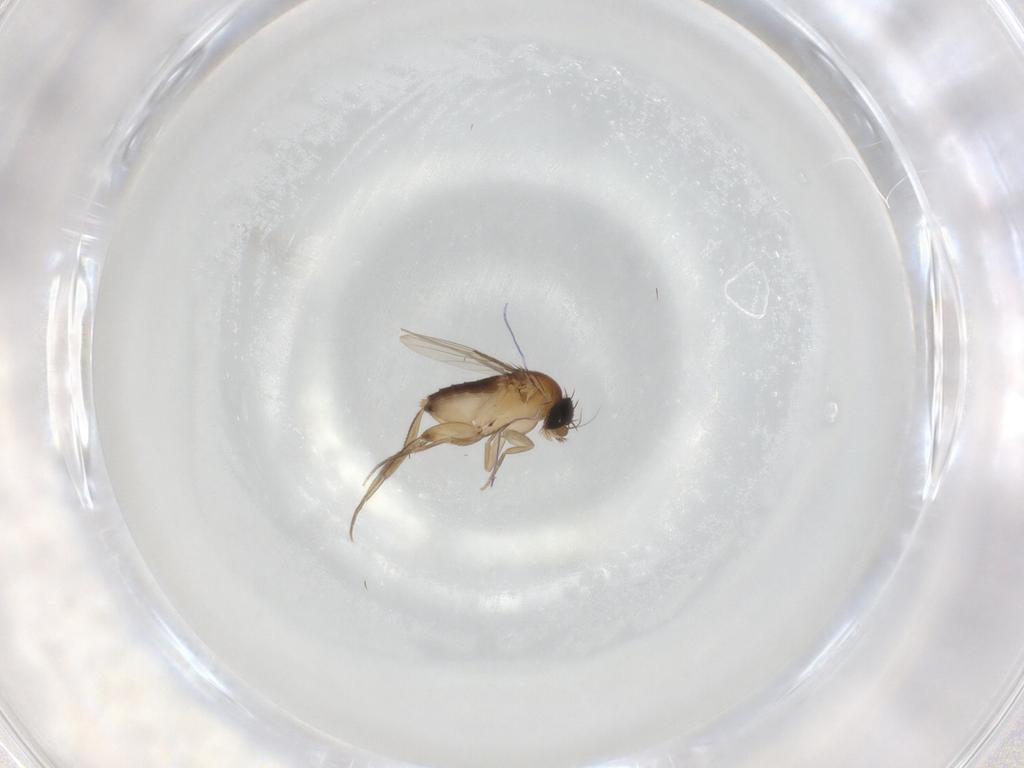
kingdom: Animalia
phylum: Arthropoda
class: Insecta
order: Diptera
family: Phoridae
